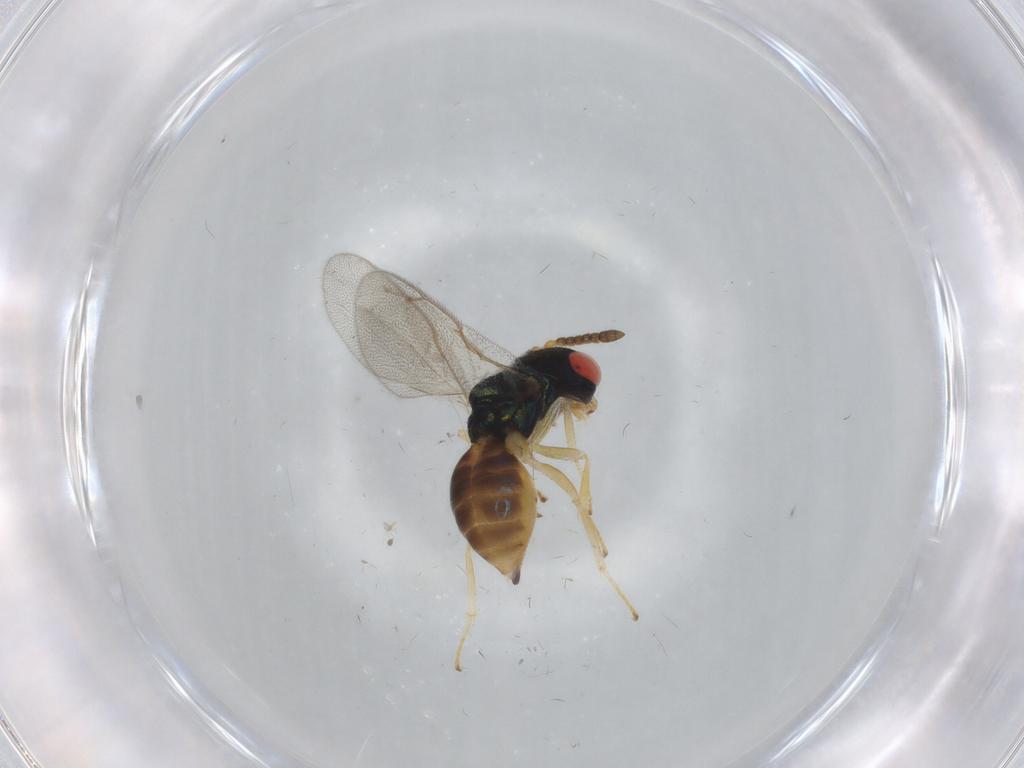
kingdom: Animalia
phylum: Arthropoda
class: Insecta
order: Hymenoptera
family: Pteromalidae
